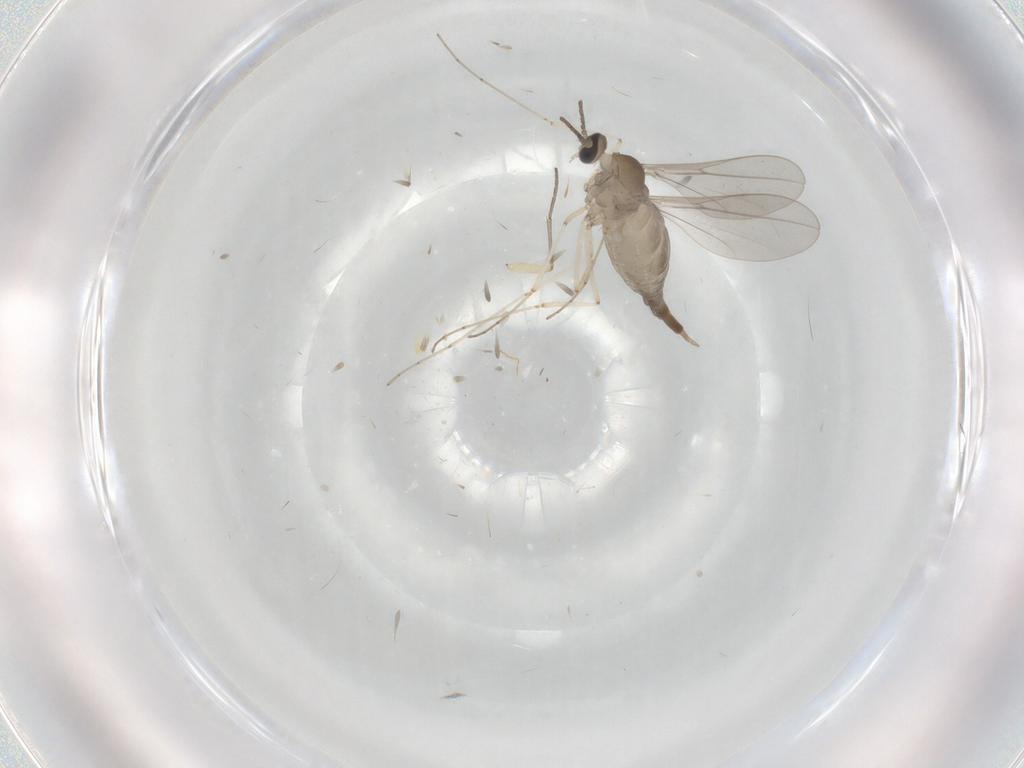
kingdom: Animalia
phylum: Arthropoda
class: Insecta
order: Diptera
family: Cecidomyiidae
